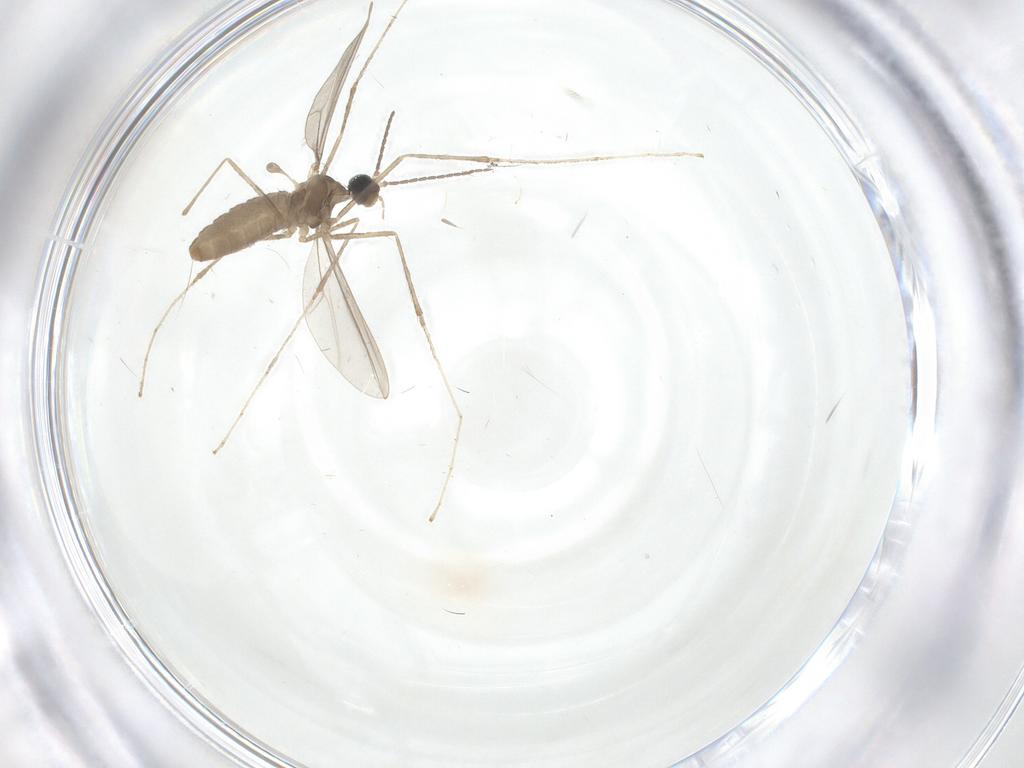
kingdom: Animalia
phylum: Arthropoda
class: Insecta
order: Diptera
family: Cecidomyiidae
